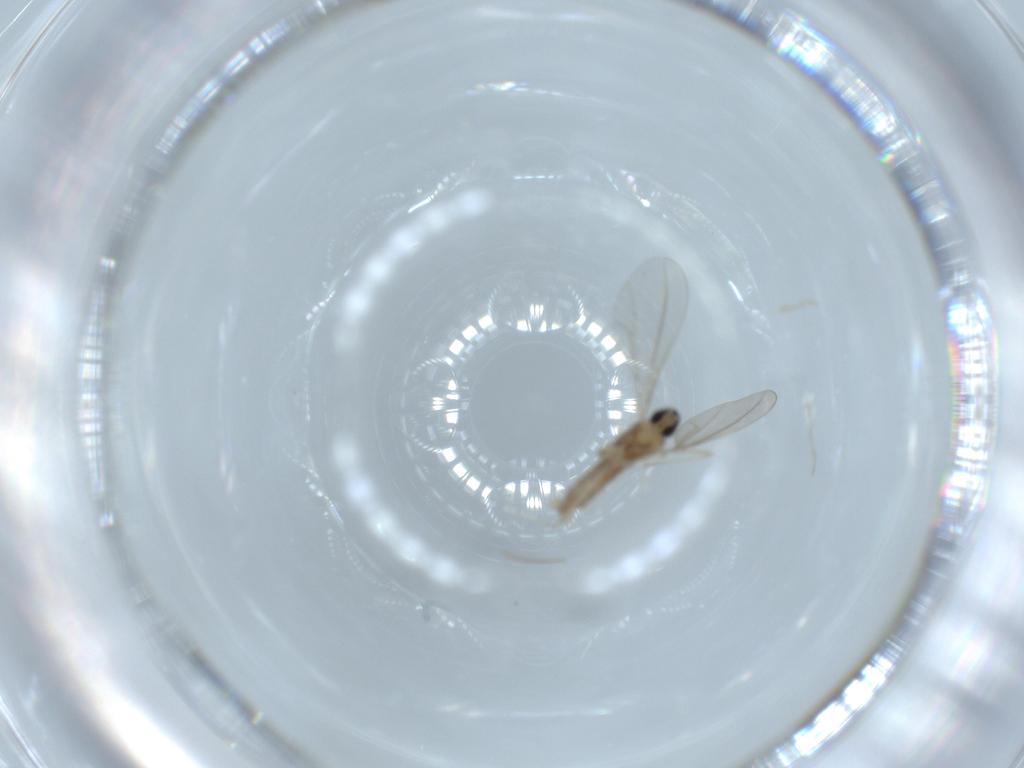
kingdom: Animalia
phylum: Arthropoda
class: Insecta
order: Diptera
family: Cecidomyiidae
